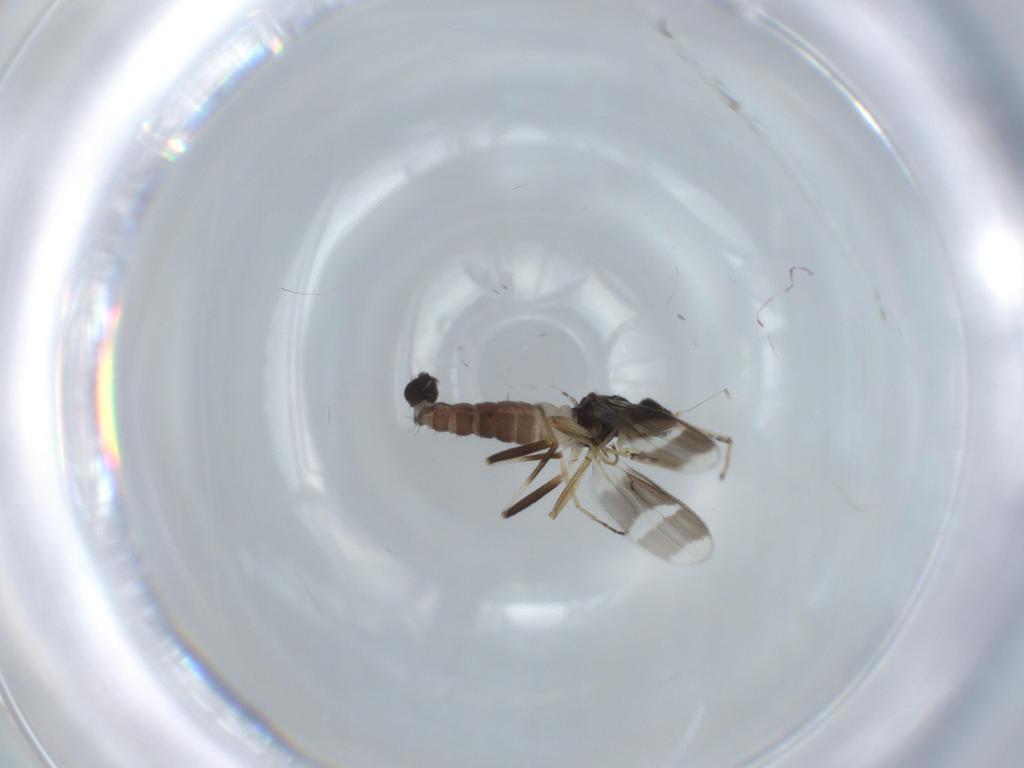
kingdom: Animalia
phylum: Arthropoda
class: Insecta
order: Diptera
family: Hybotidae
